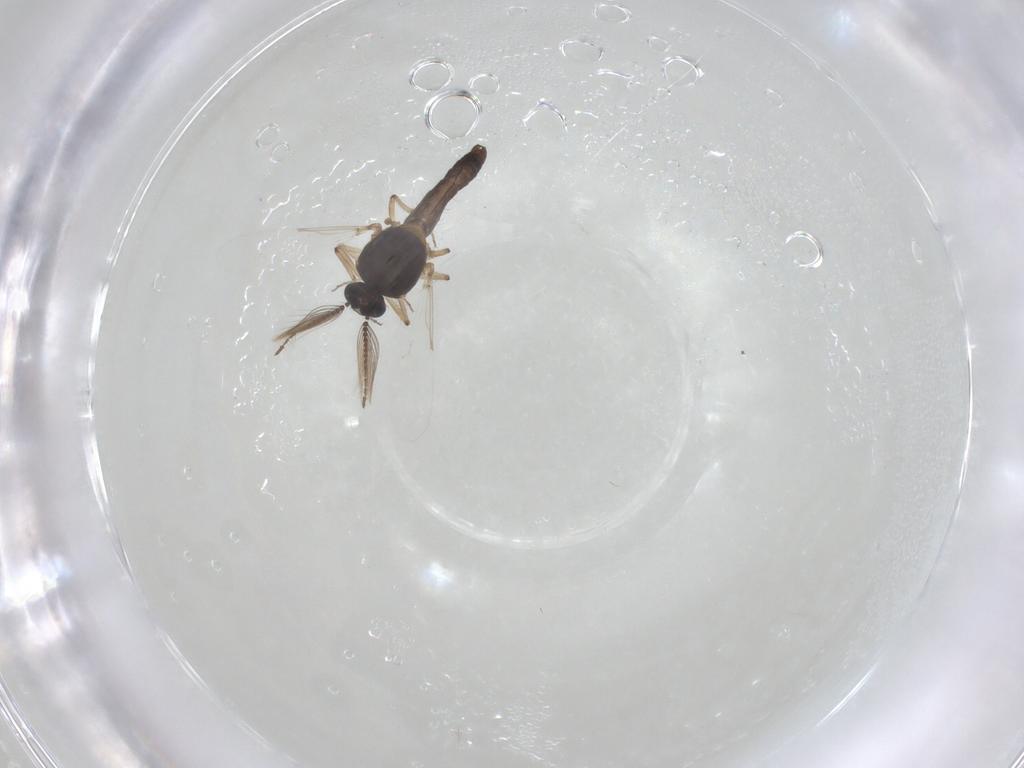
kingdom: Animalia
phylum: Arthropoda
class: Insecta
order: Diptera
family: Ceratopogonidae
